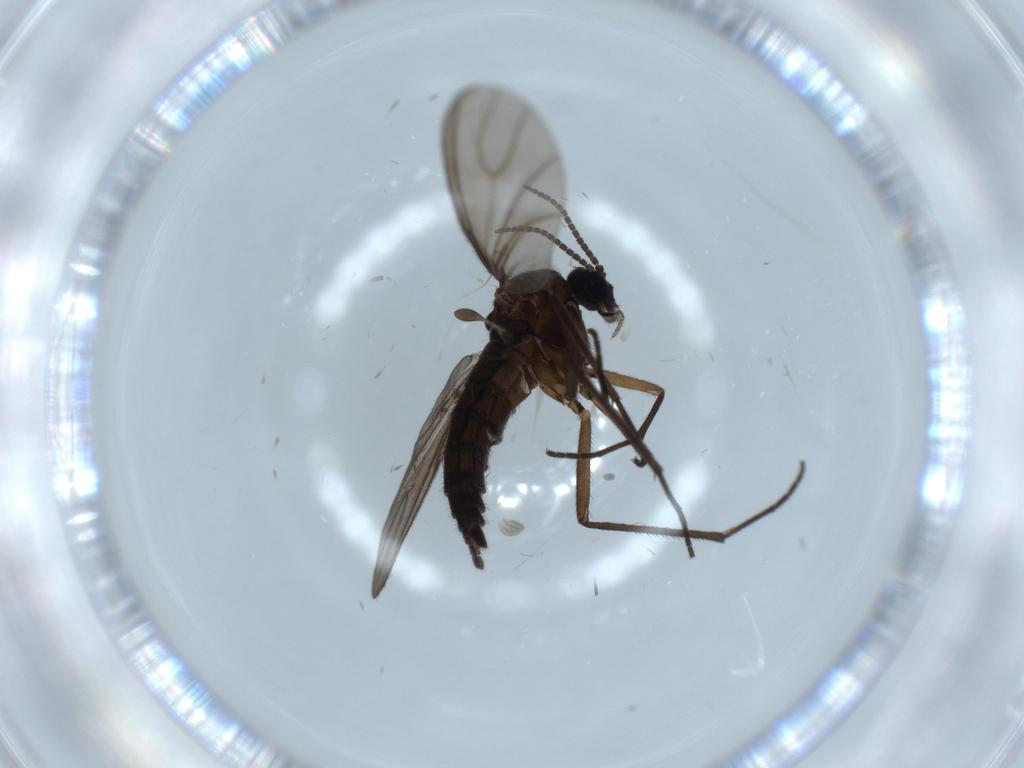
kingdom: Animalia
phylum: Arthropoda
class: Insecta
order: Diptera
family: Sciaridae
